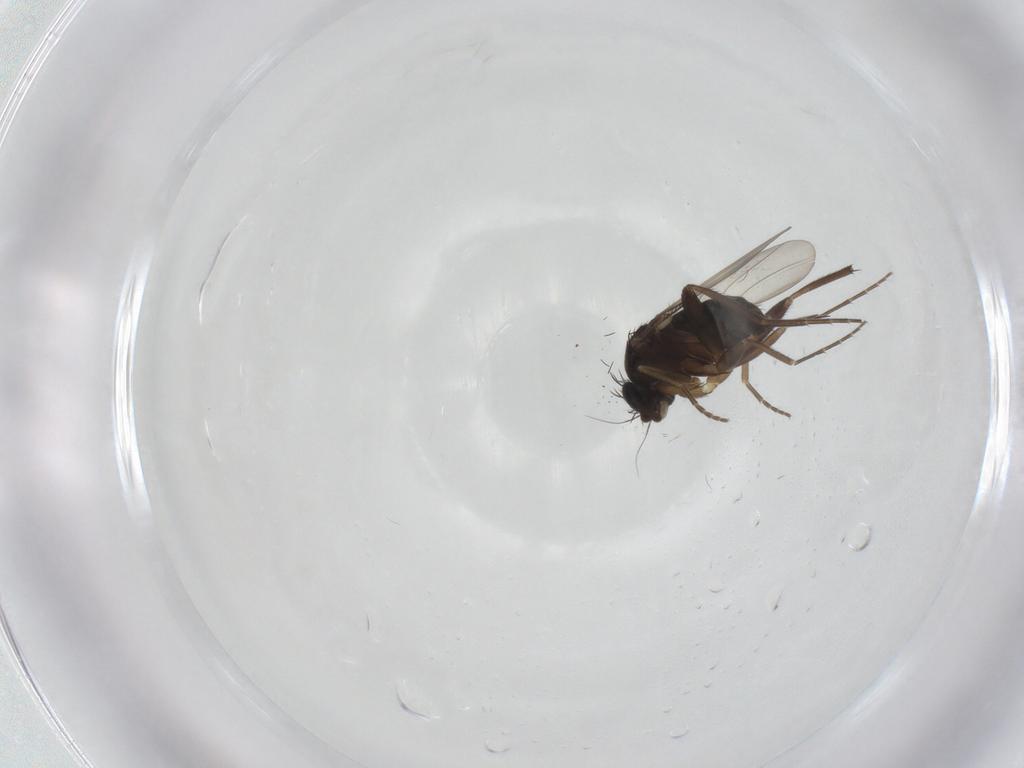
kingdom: Animalia
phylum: Arthropoda
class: Insecta
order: Diptera
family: Phoridae
